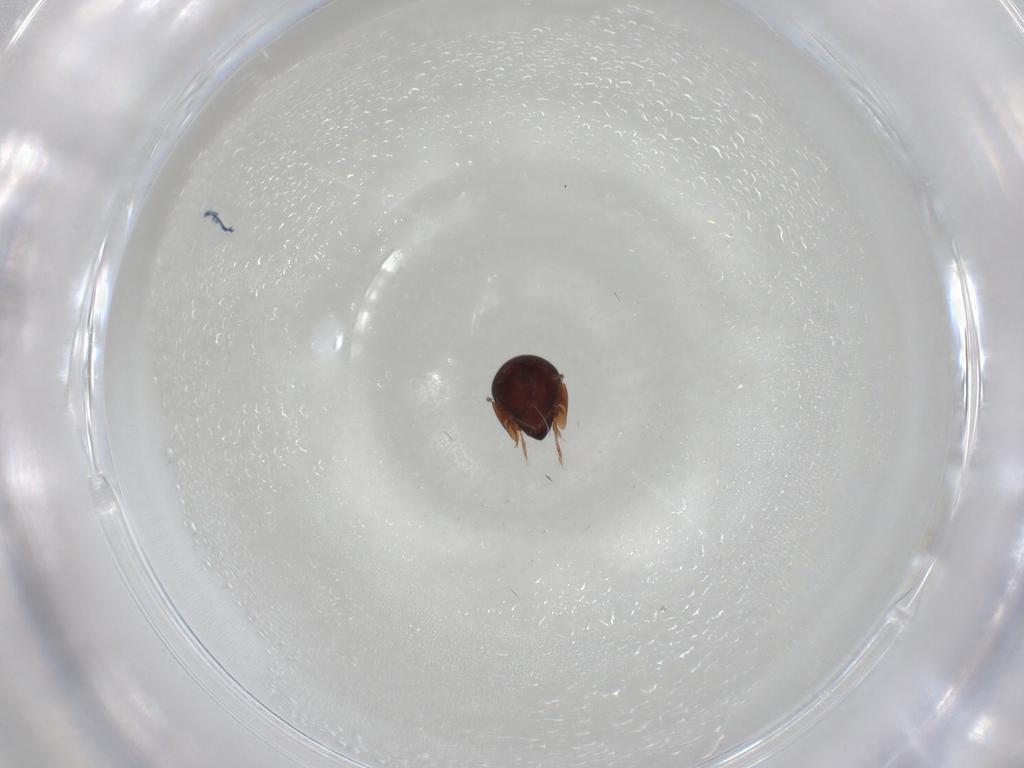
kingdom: Animalia
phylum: Arthropoda
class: Arachnida
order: Sarcoptiformes
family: Galumnidae
